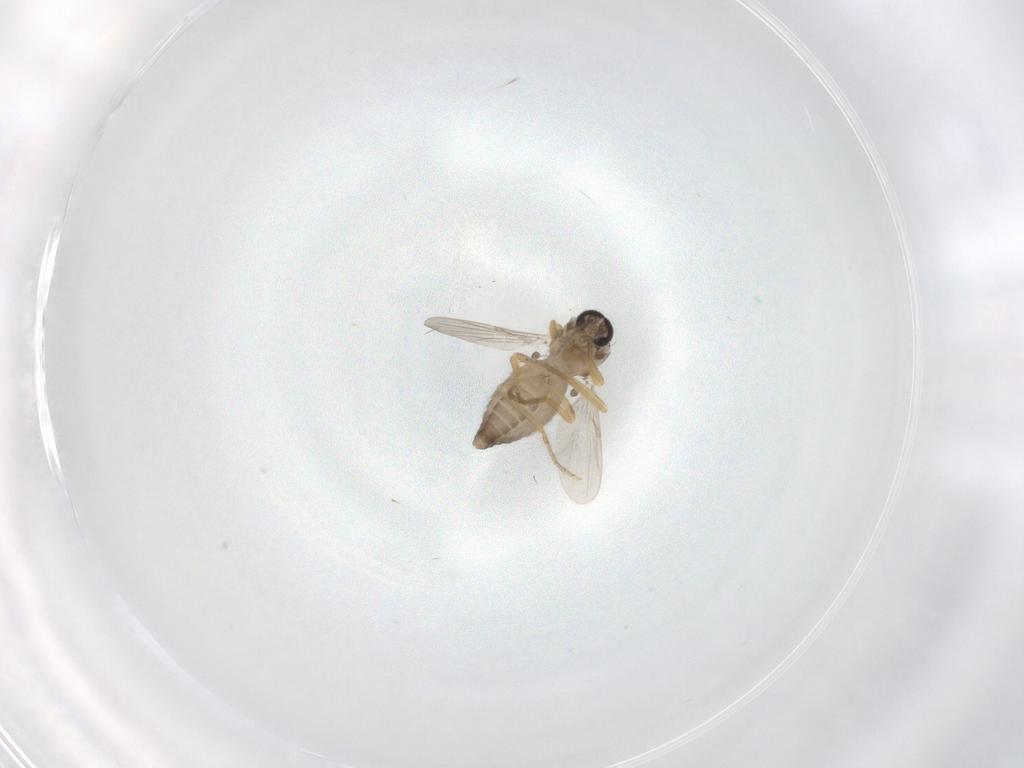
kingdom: Animalia
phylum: Arthropoda
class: Insecta
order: Diptera
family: Ceratopogonidae
